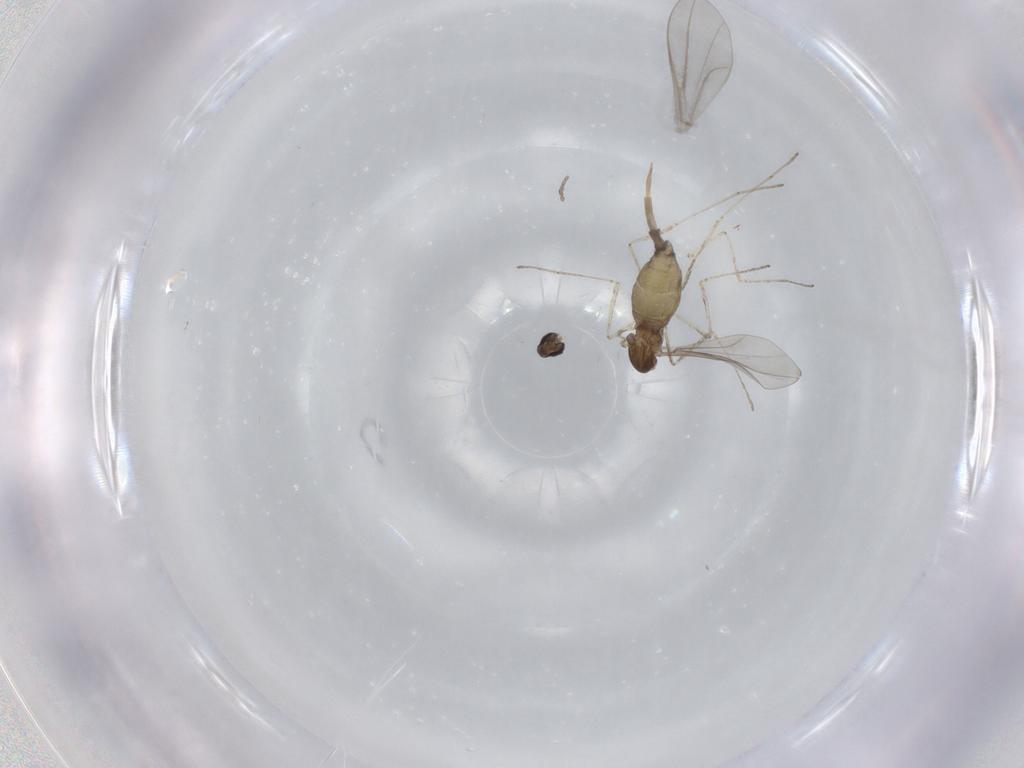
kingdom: Animalia
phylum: Arthropoda
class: Insecta
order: Diptera
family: Cecidomyiidae
